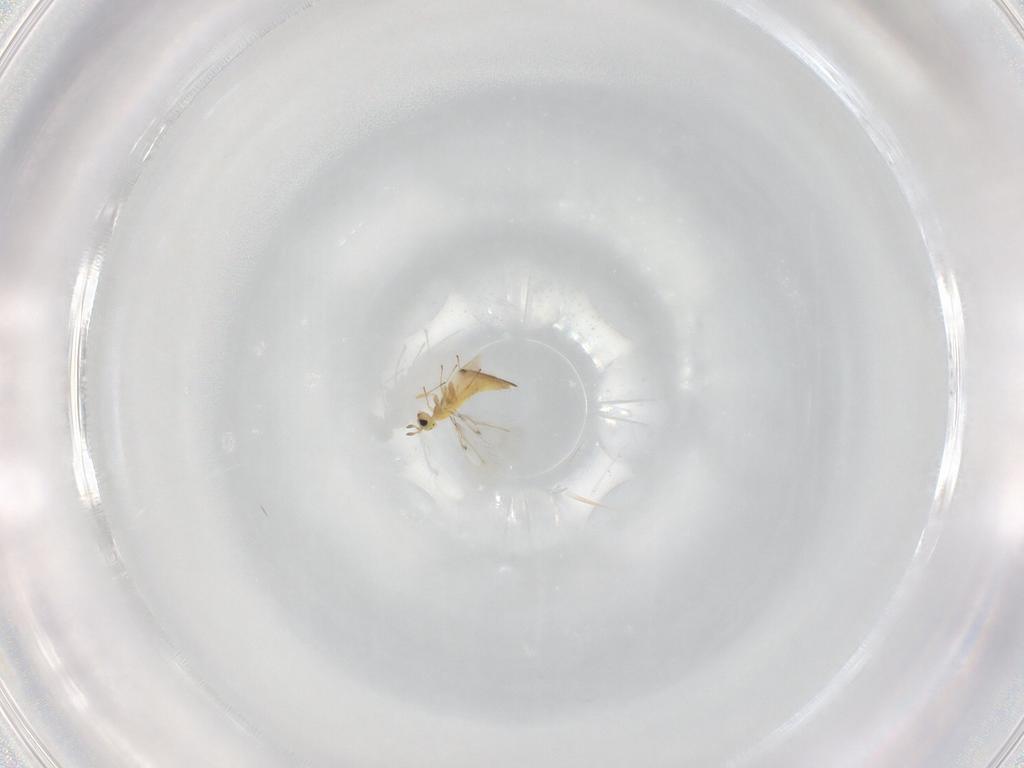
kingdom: Animalia
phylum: Arthropoda
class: Insecta
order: Hymenoptera
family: Trichogrammatidae
